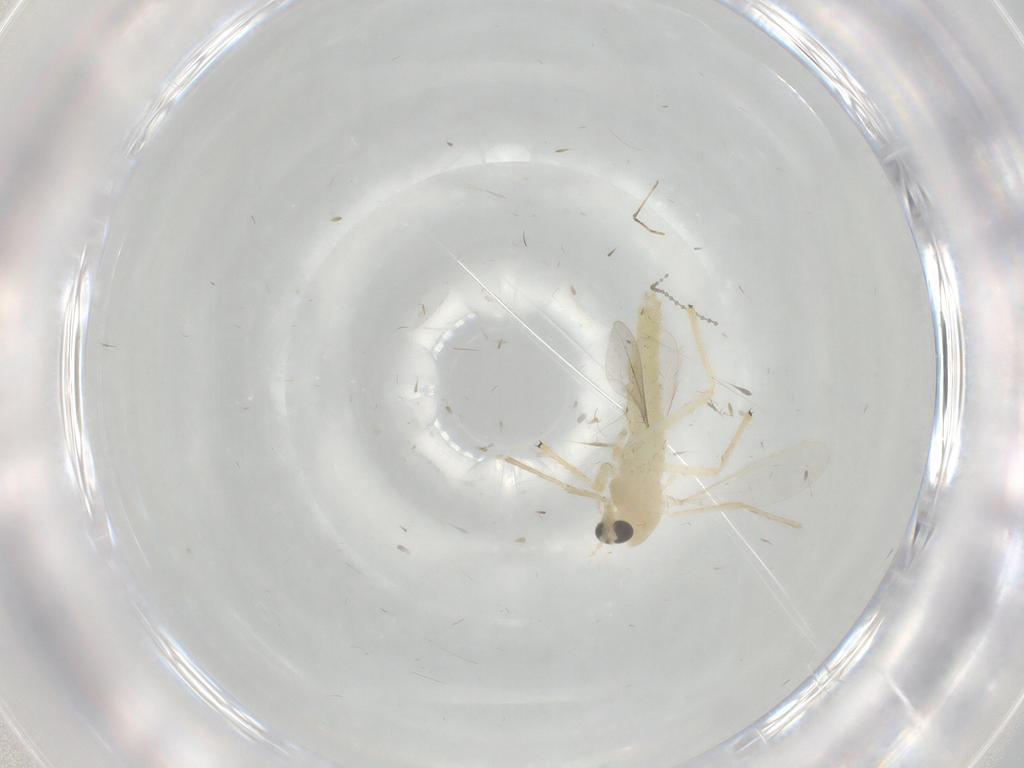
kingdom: Animalia
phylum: Arthropoda
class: Insecta
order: Diptera
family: Chironomidae
